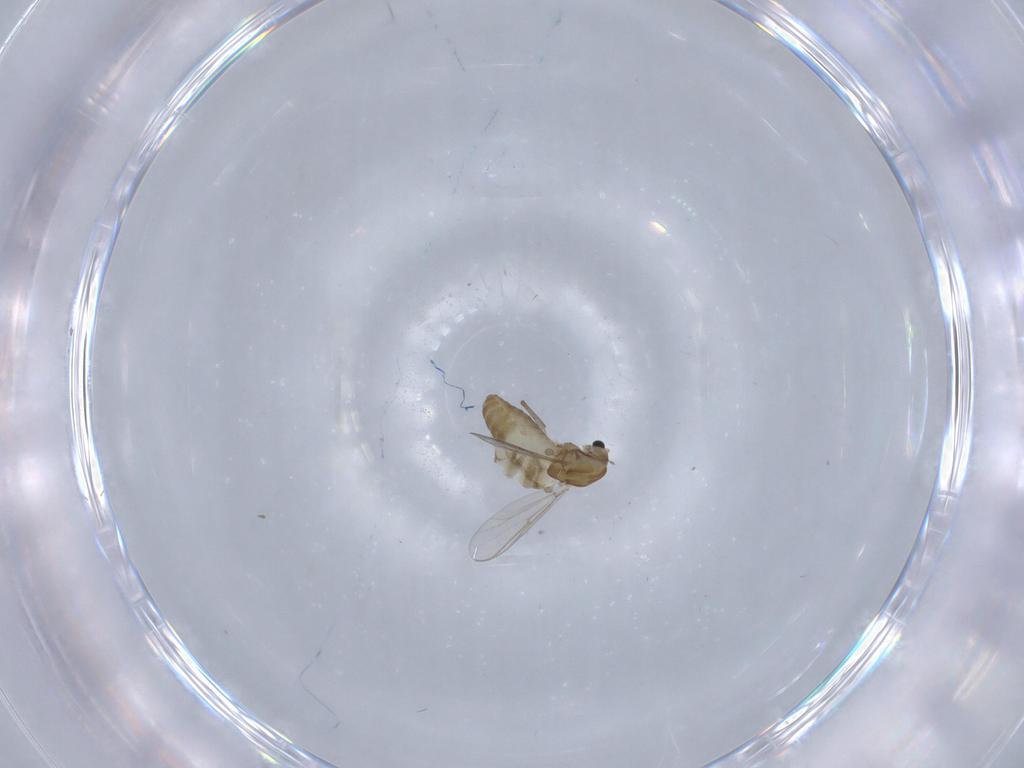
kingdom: Animalia
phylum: Arthropoda
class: Insecta
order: Diptera
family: Chironomidae
